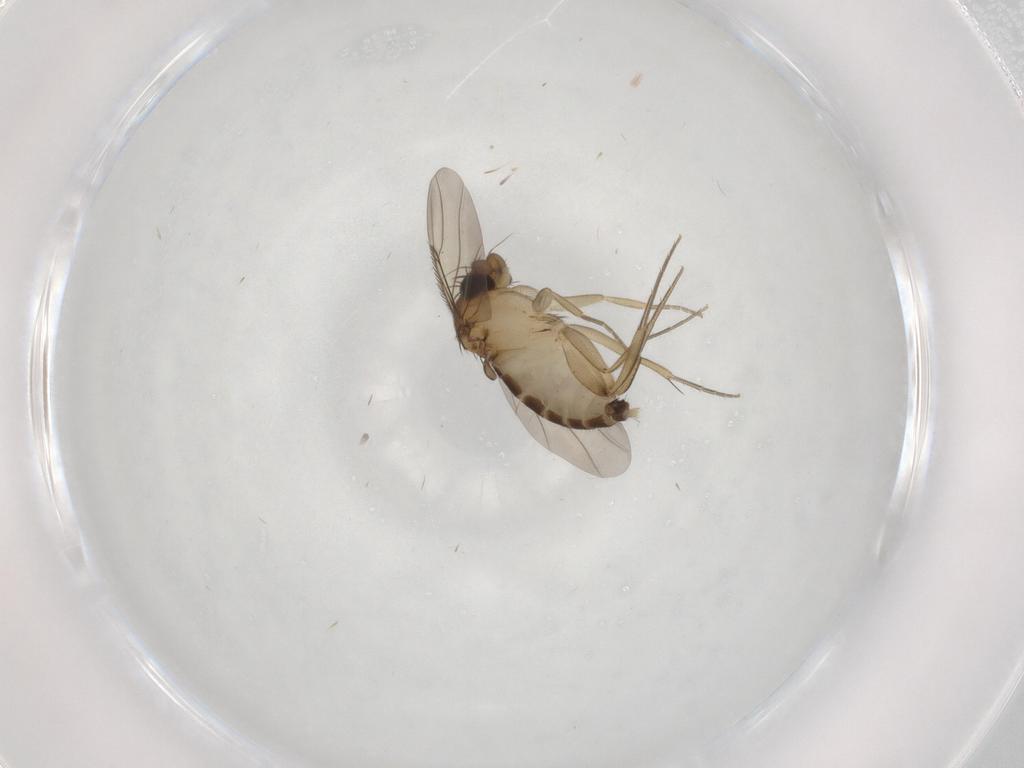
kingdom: Animalia
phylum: Arthropoda
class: Insecta
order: Diptera
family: Phoridae
